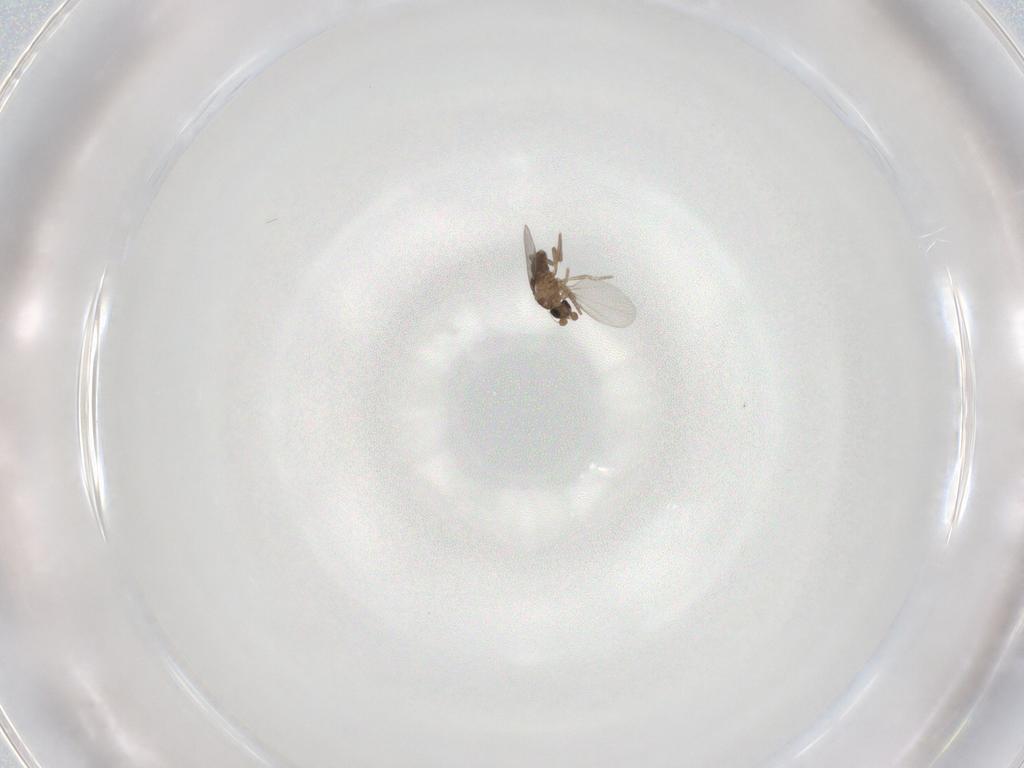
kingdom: Animalia
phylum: Arthropoda
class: Insecta
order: Diptera
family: Phoridae
